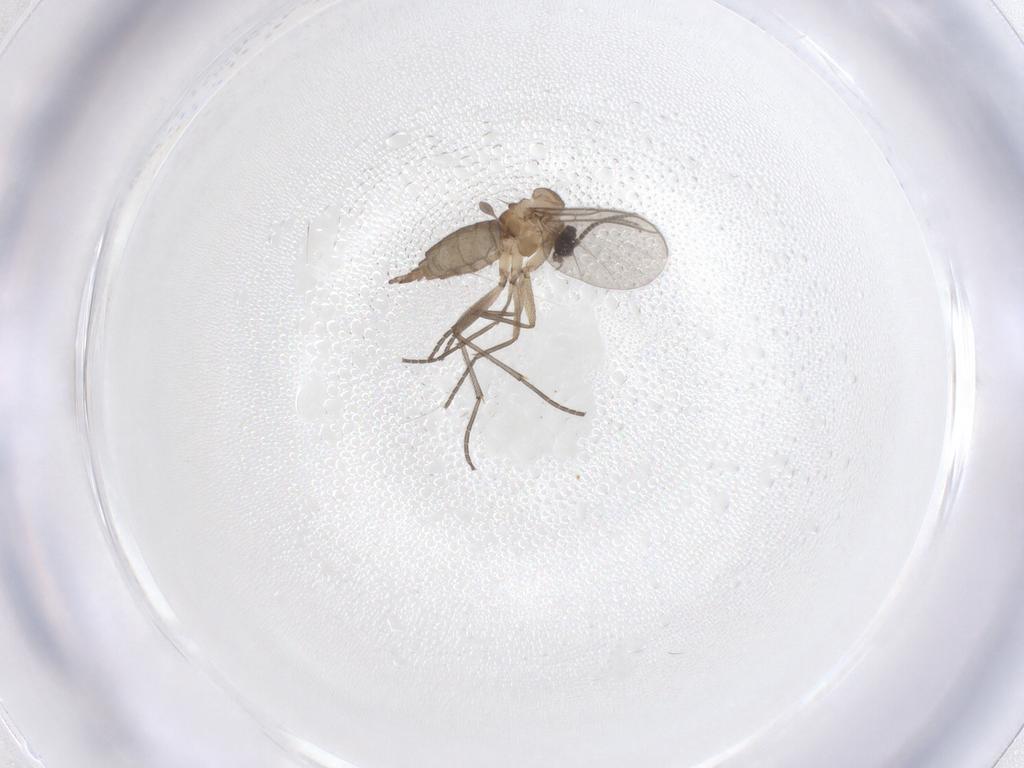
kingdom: Animalia
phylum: Arthropoda
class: Insecta
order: Diptera
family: Sciaridae
